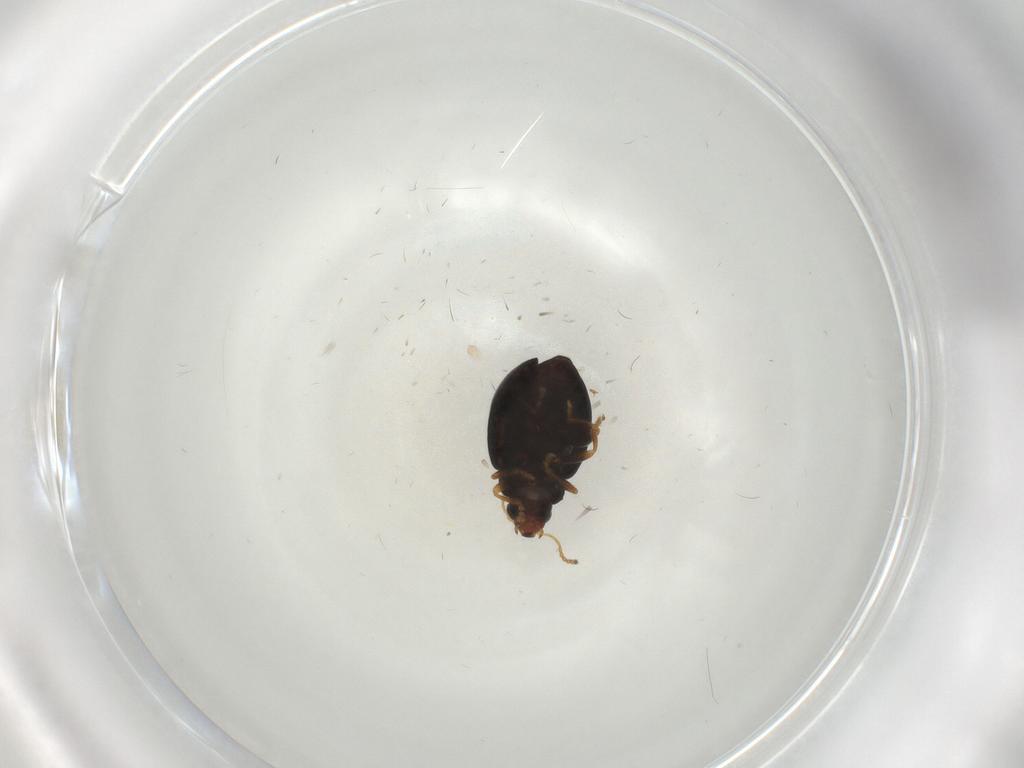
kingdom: Animalia
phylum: Arthropoda
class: Insecta
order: Coleoptera
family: Chrysomelidae
